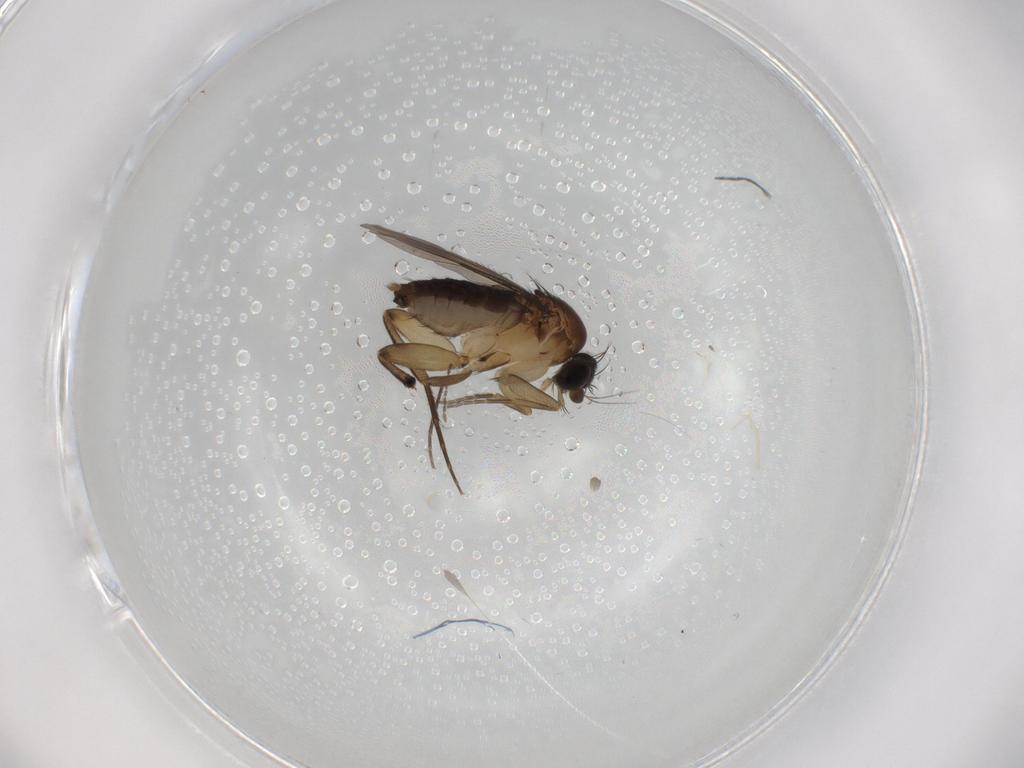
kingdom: Animalia
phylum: Arthropoda
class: Insecta
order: Diptera
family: Phoridae
